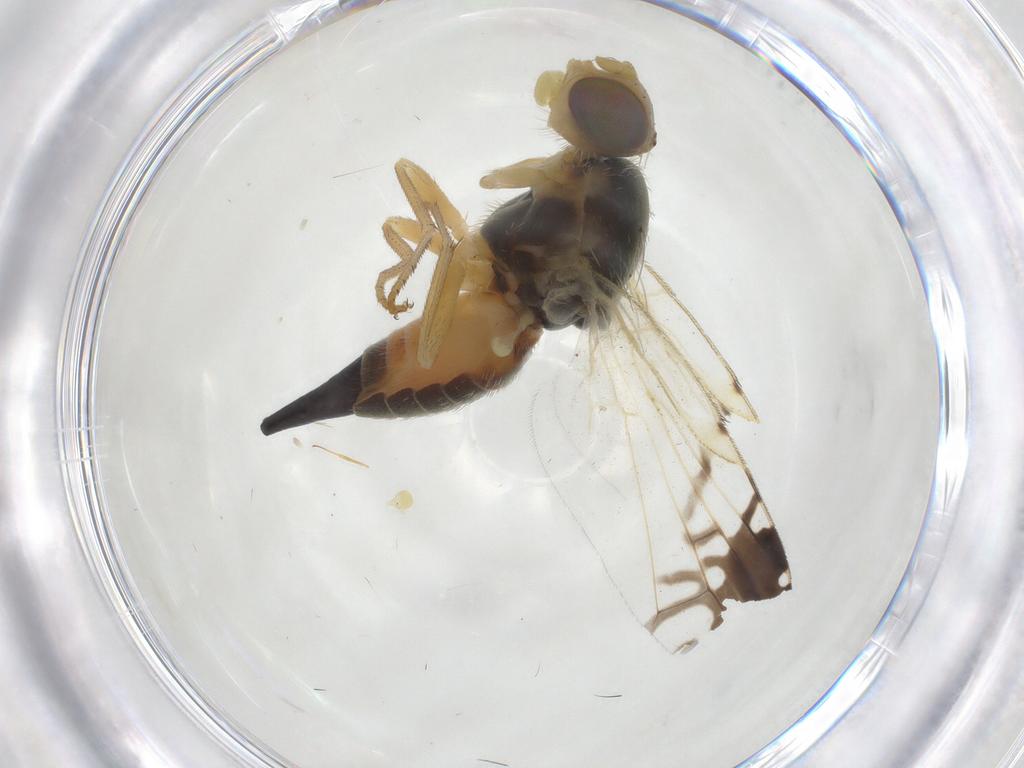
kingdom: Animalia
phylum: Arthropoda
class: Insecta
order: Diptera
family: Tephritidae
